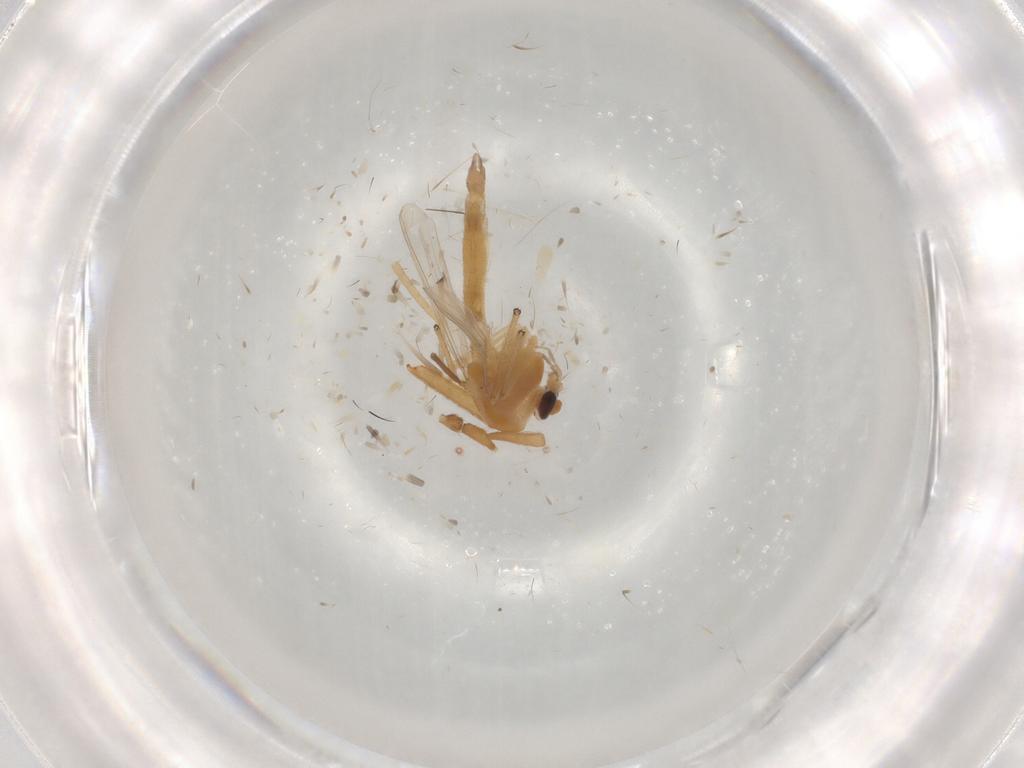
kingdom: Animalia
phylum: Arthropoda
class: Insecta
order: Diptera
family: Chironomidae
